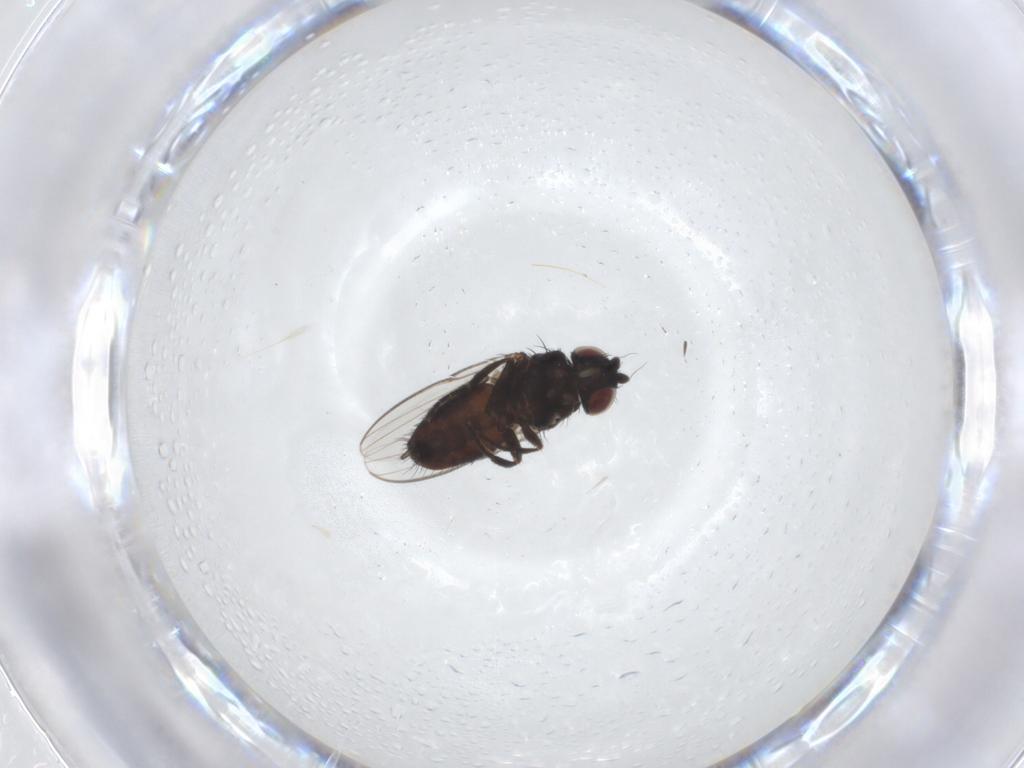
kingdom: Animalia
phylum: Arthropoda
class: Insecta
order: Diptera
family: Milichiidae
